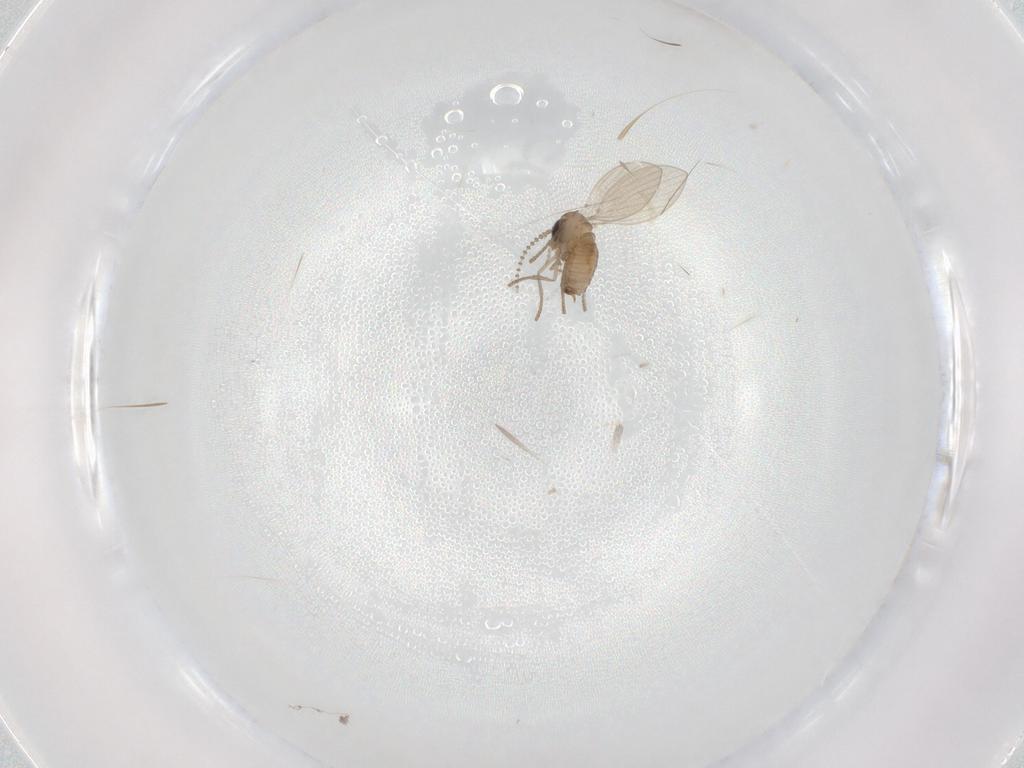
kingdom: Animalia
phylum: Arthropoda
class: Insecta
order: Diptera
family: Psychodidae
